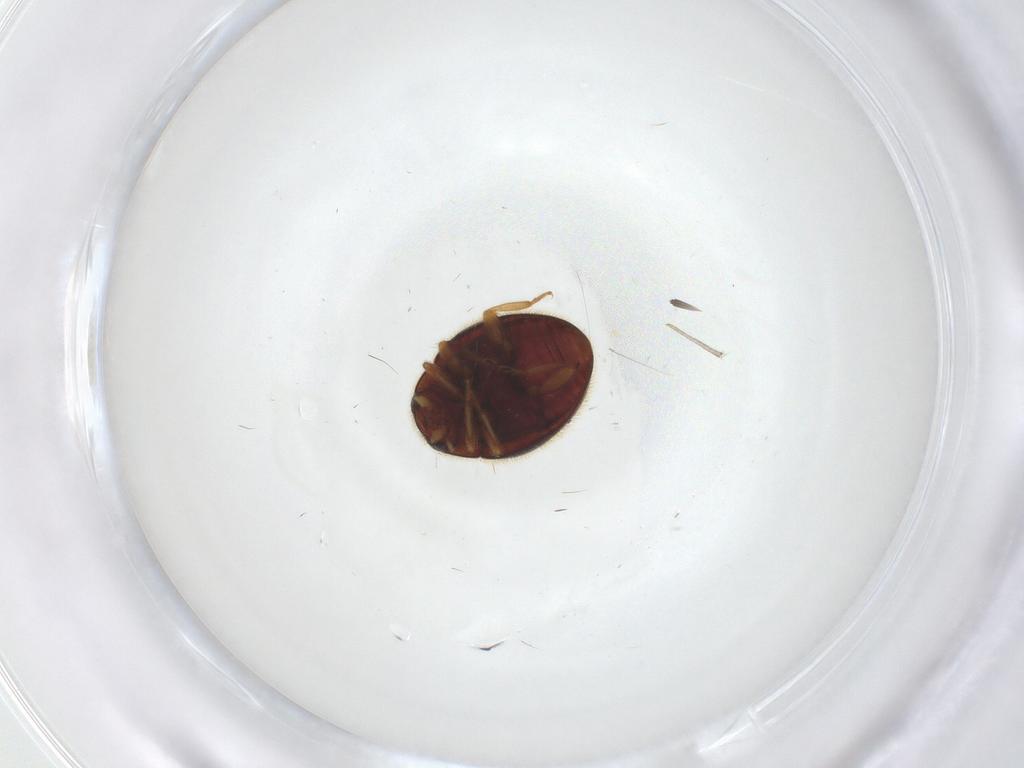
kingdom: Animalia
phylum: Arthropoda
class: Insecta
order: Coleoptera
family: Coccinellidae
